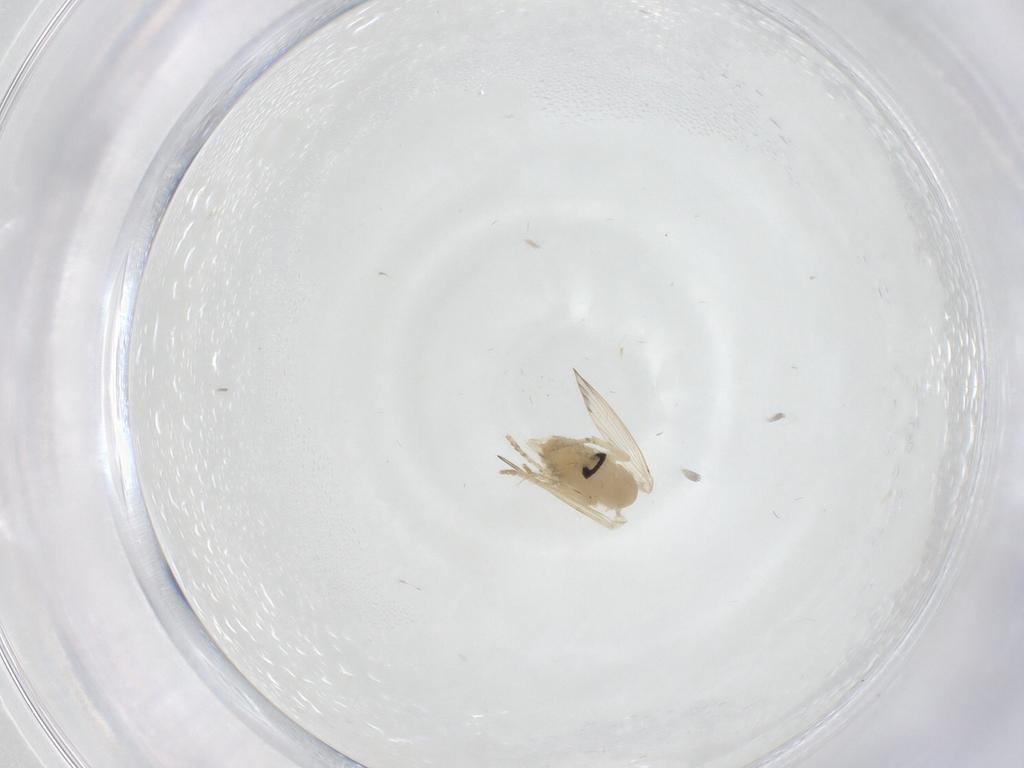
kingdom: Animalia
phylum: Arthropoda
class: Insecta
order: Diptera
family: Psychodidae
